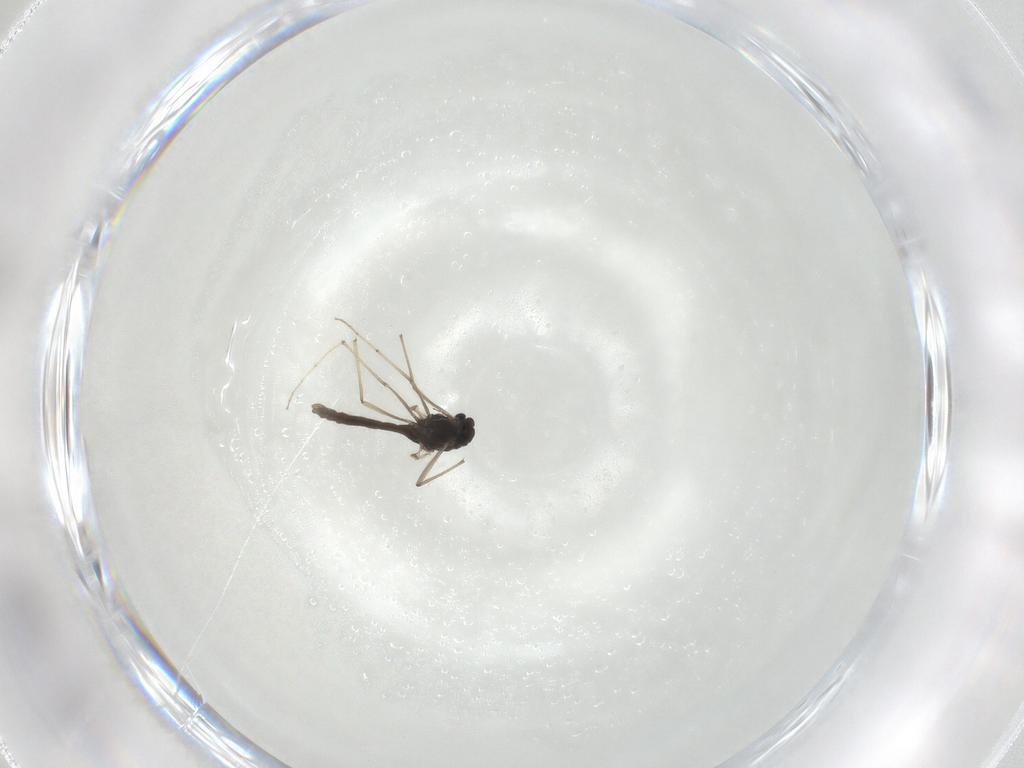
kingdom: Animalia
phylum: Arthropoda
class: Insecta
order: Diptera
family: Chironomidae
